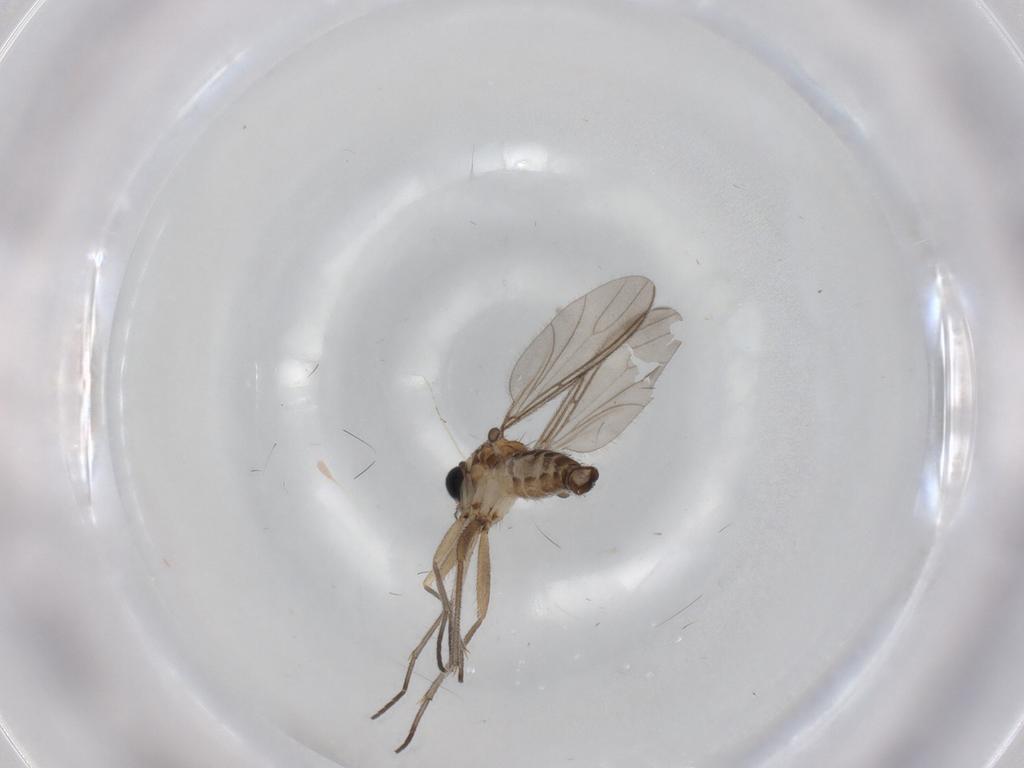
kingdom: Animalia
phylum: Arthropoda
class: Insecta
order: Diptera
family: Sciaridae
